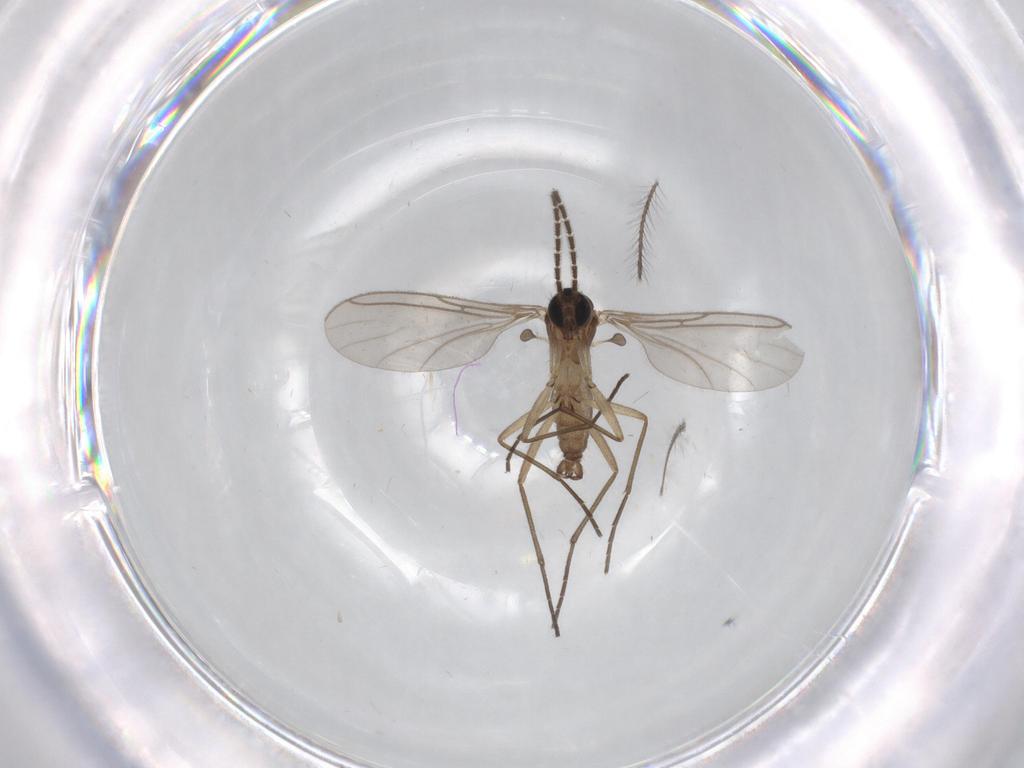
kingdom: Animalia
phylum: Arthropoda
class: Insecta
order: Diptera
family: Sciaridae
